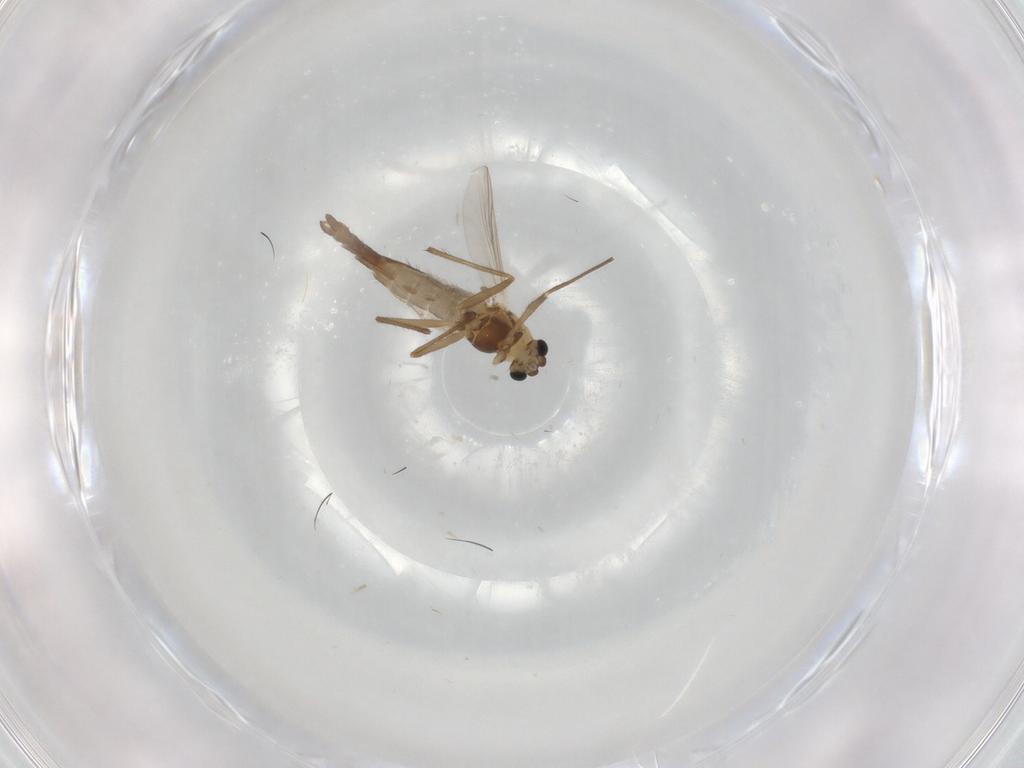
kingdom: Animalia
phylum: Arthropoda
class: Insecta
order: Diptera
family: Chironomidae
